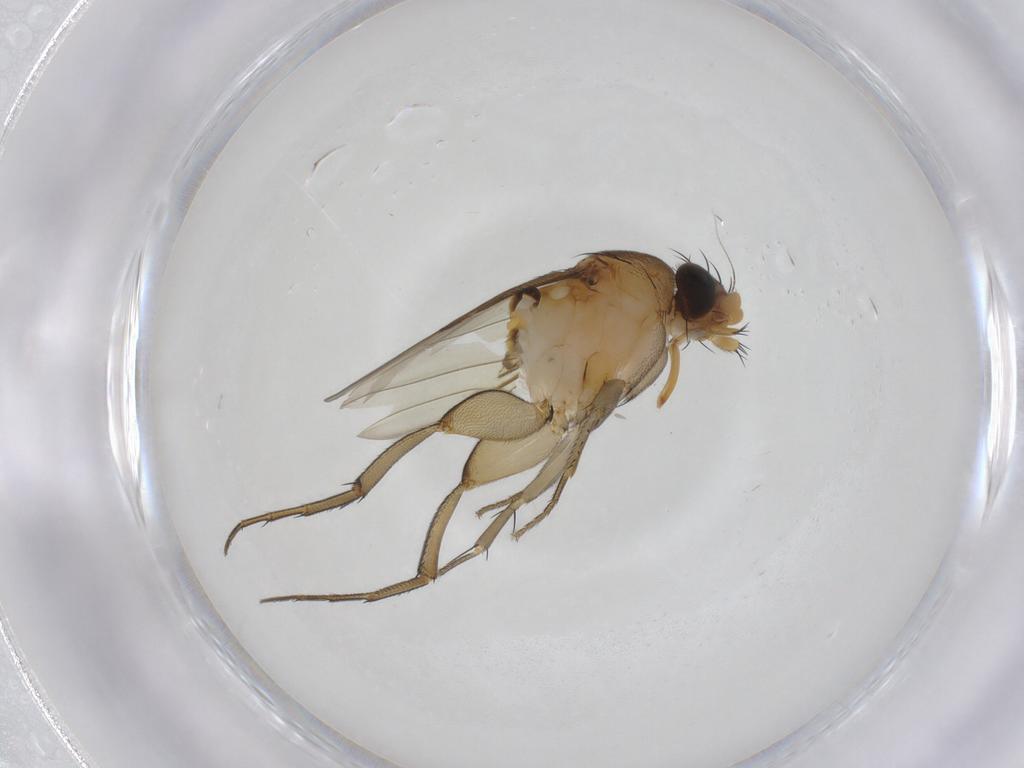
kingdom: Animalia
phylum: Arthropoda
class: Insecta
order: Diptera
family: Phoridae
